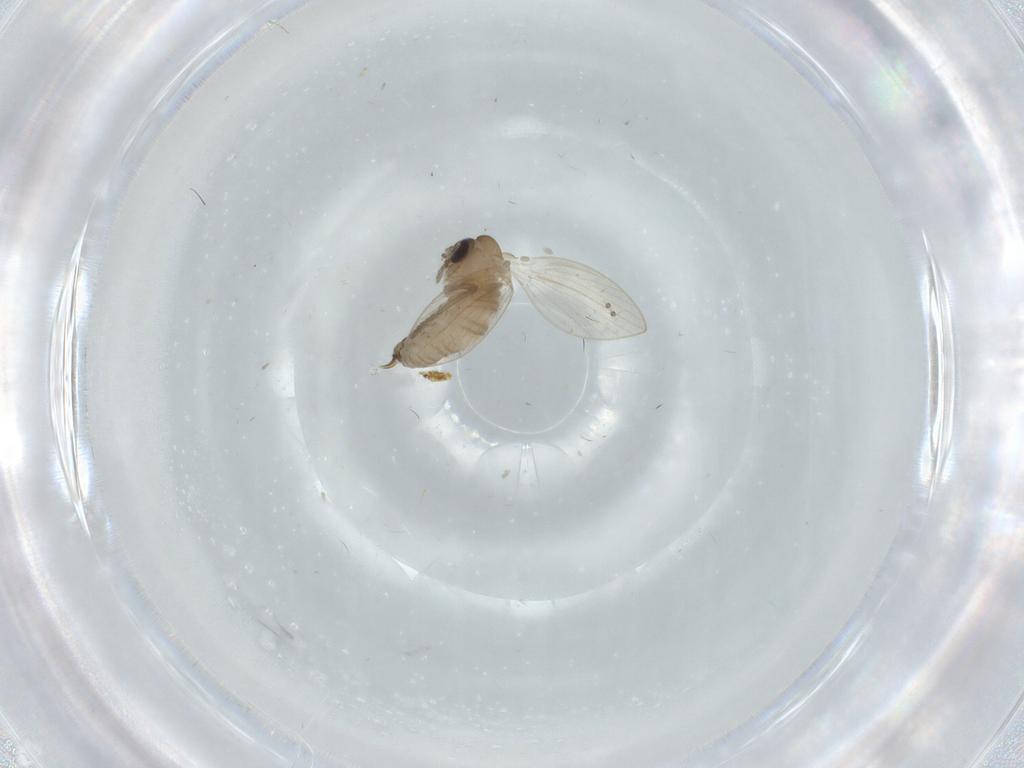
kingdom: Animalia
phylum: Arthropoda
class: Insecta
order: Diptera
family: Psychodidae
